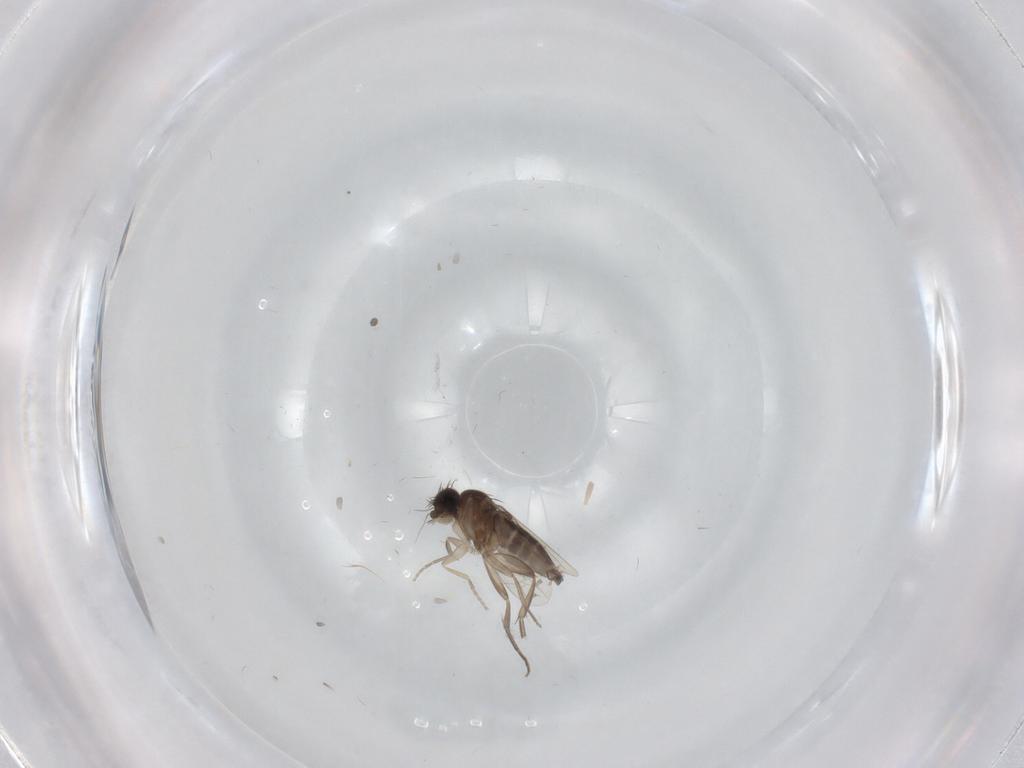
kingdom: Animalia
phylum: Arthropoda
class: Insecta
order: Diptera
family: Phoridae
